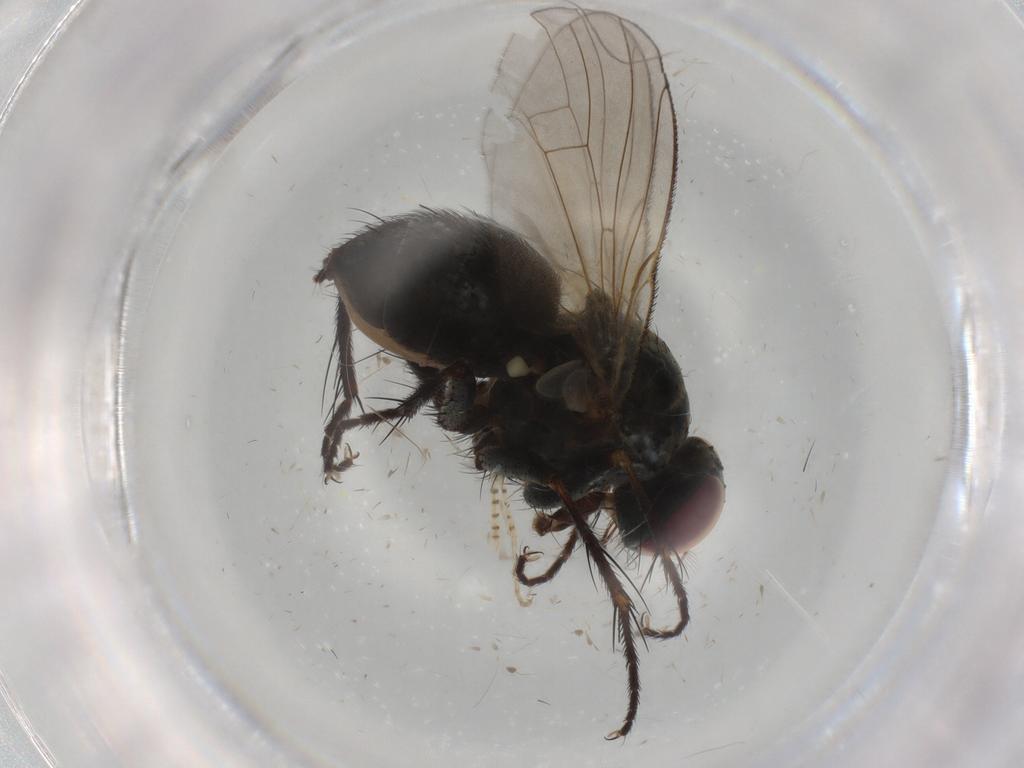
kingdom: Animalia
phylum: Arthropoda
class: Insecta
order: Diptera
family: Chironomidae
